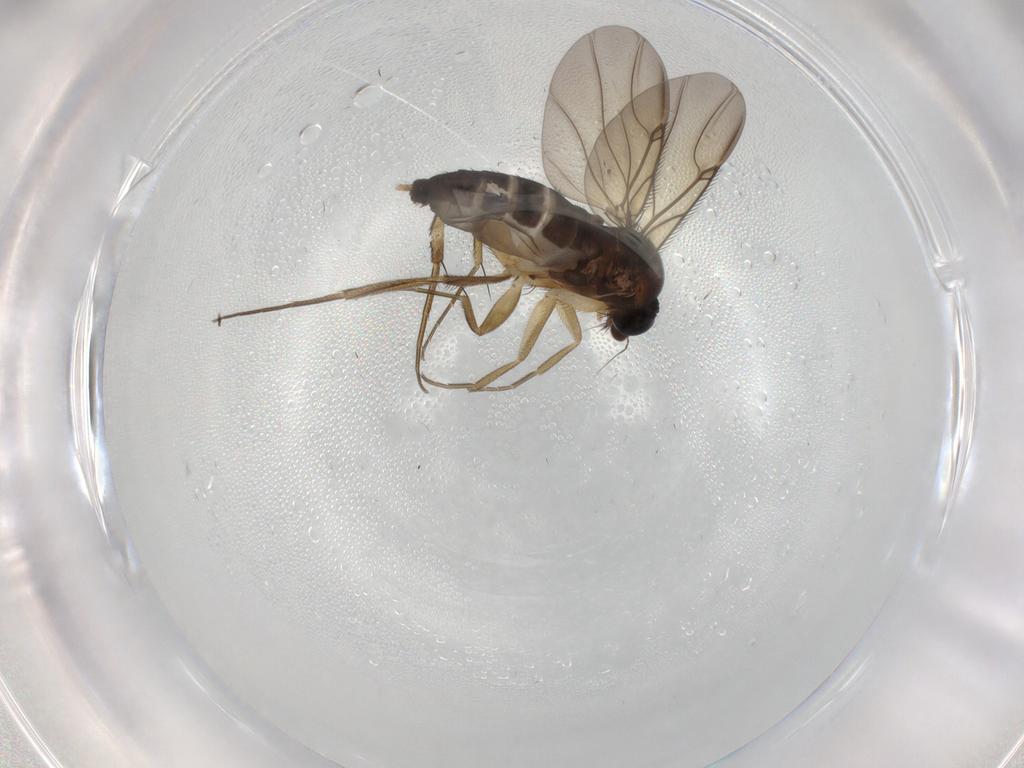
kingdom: Animalia
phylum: Arthropoda
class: Insecta
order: Diptera
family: Phoridae
